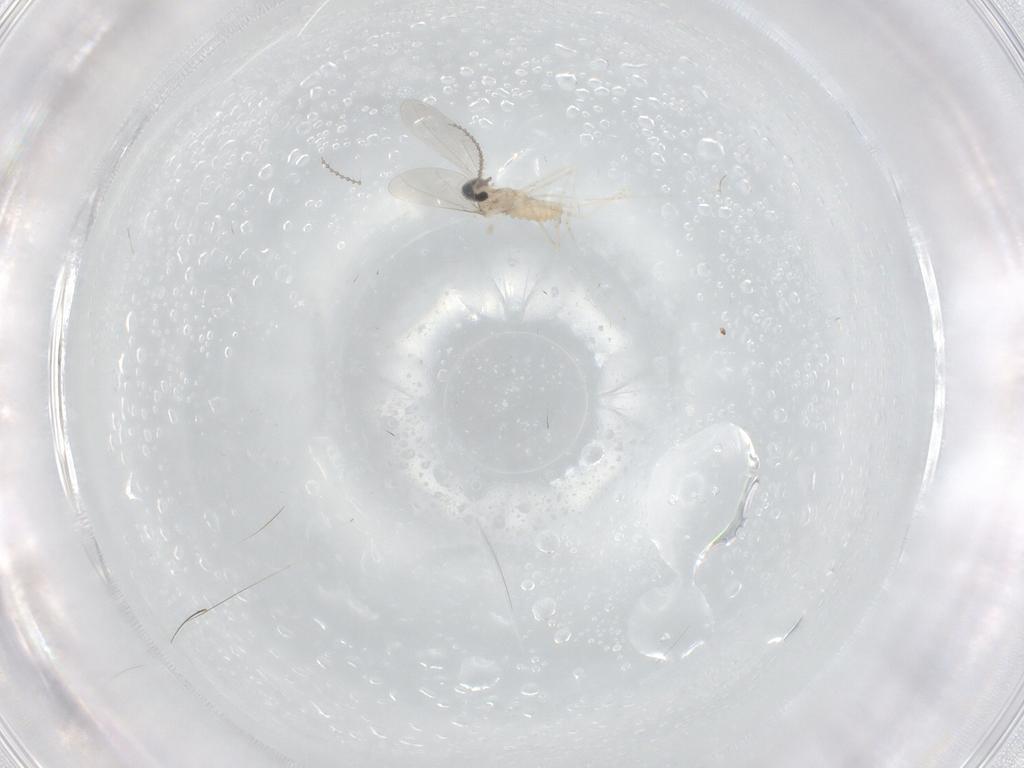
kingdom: Animalia
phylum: Arthropoda
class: Insecta
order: Diptera
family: Cecidomyiidae
